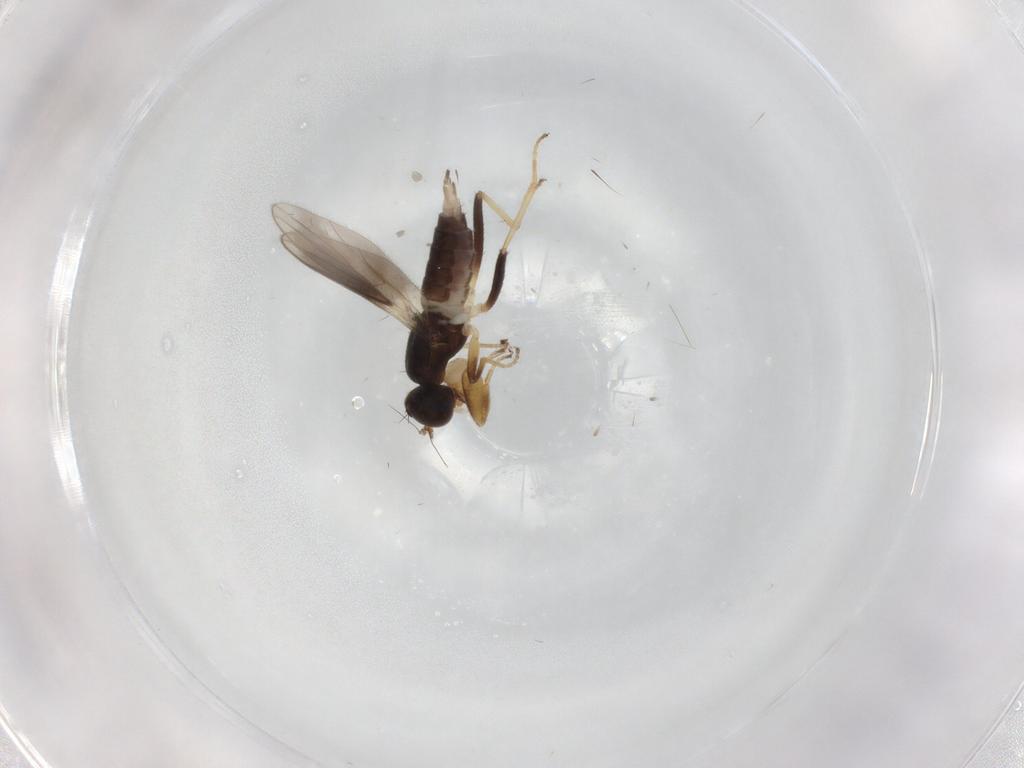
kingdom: Animalia
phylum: Arthropoda
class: Insecta
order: Diptera
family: Hybotidae
